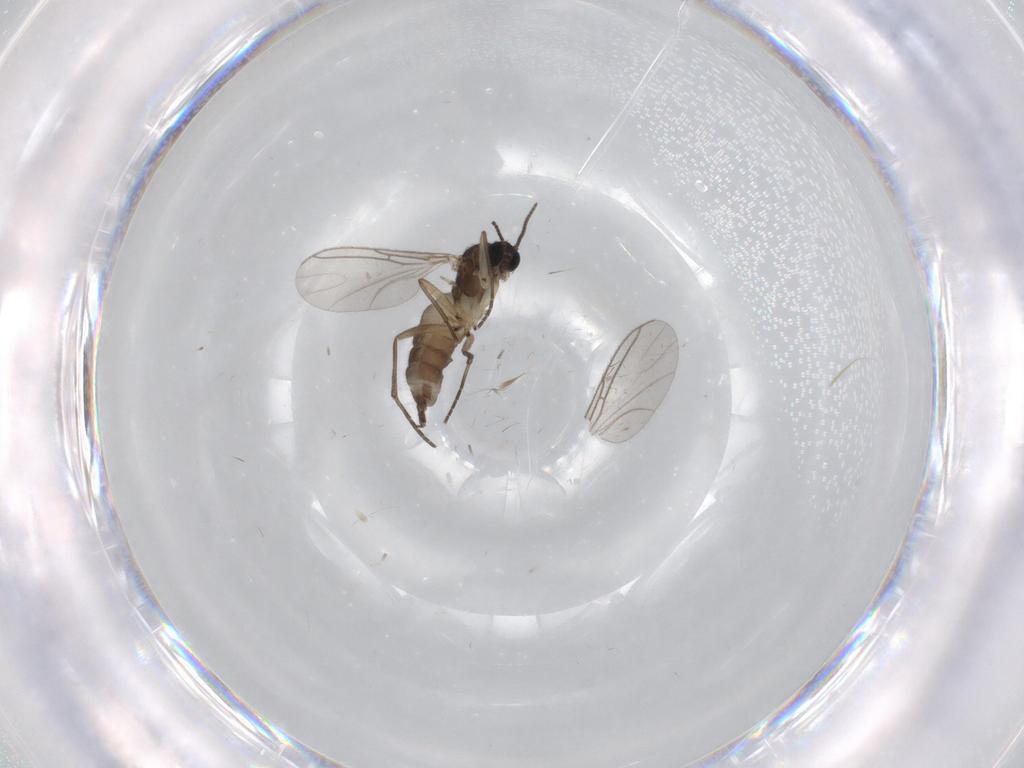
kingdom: Animalia
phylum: Arthropoda
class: Insecta
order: Diptera
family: Sciaridae
